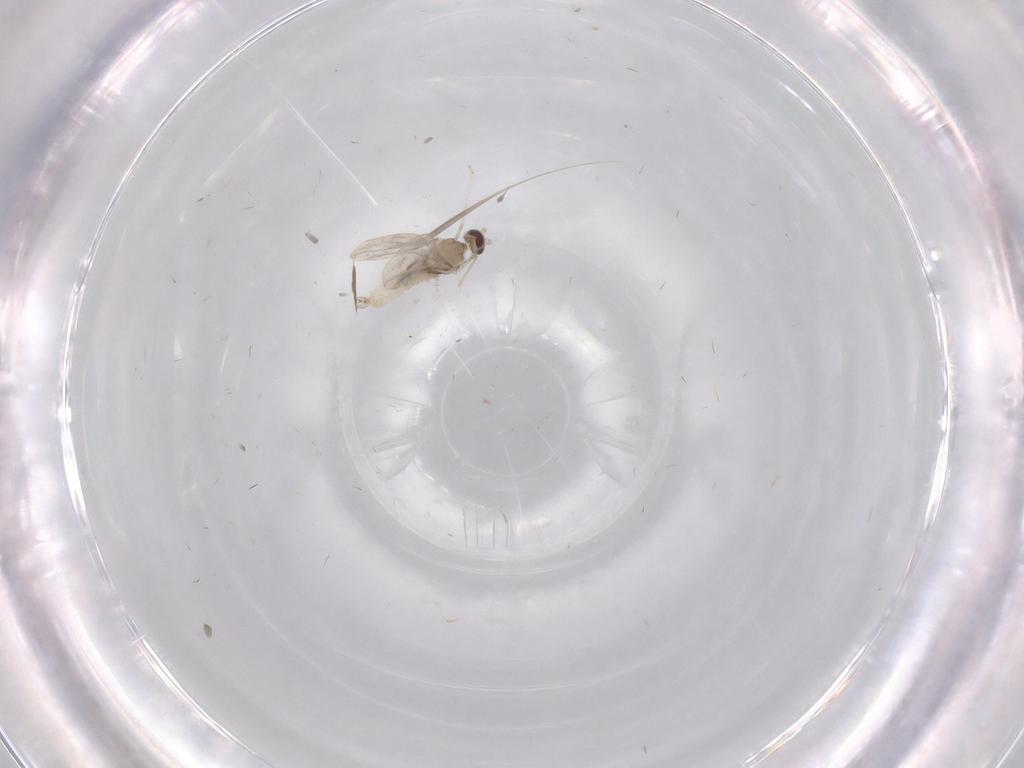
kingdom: Animalia
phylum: Arthropoda
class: Insecta
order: Diptera
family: Cecidomyiidae
